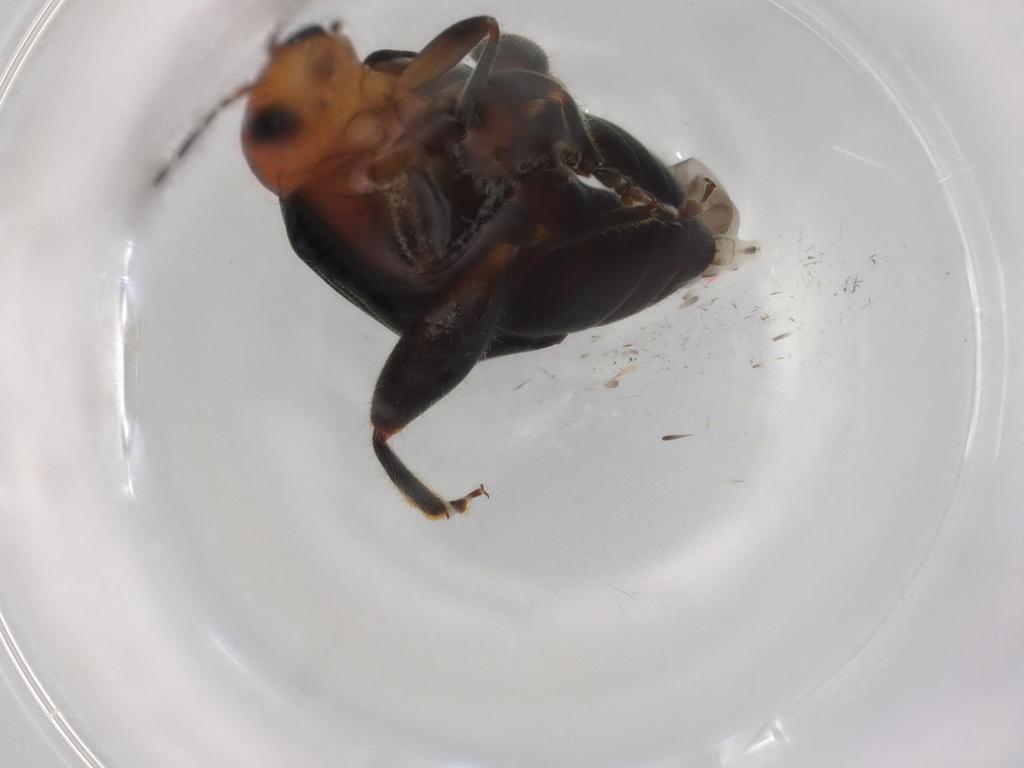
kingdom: Animalia
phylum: Arthropoda
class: Insecta
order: Coleoptera
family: Chrysomelidae
